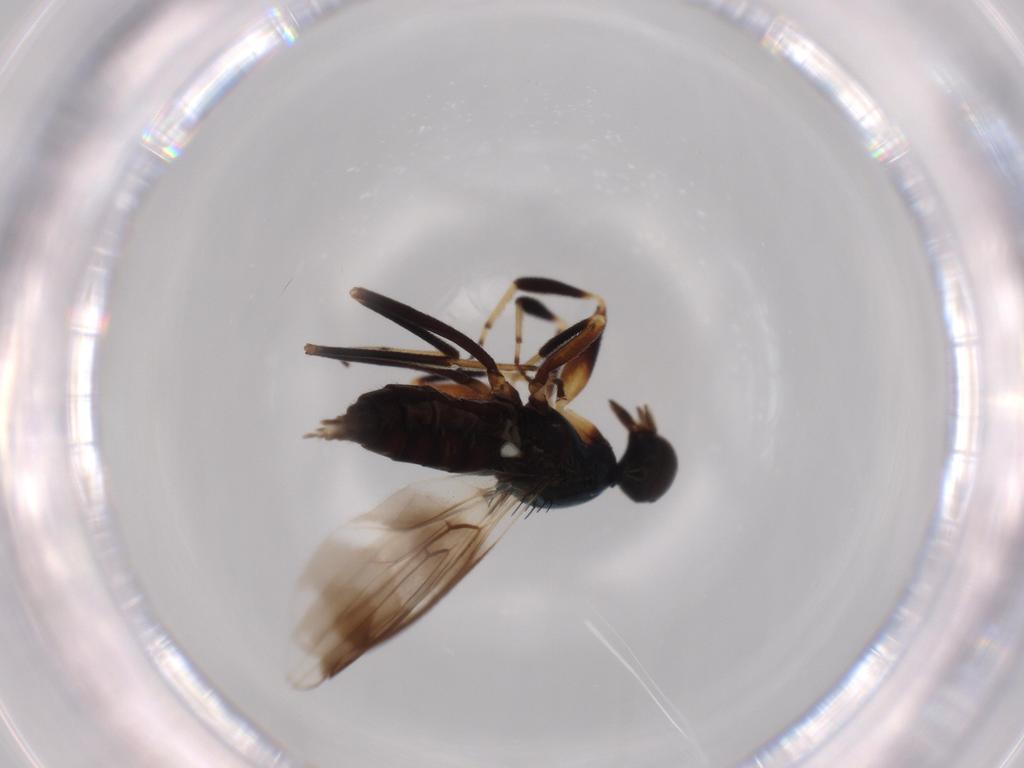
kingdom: Animalia
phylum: Arthropoda
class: Insecta
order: Diptera
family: Hybotidae
